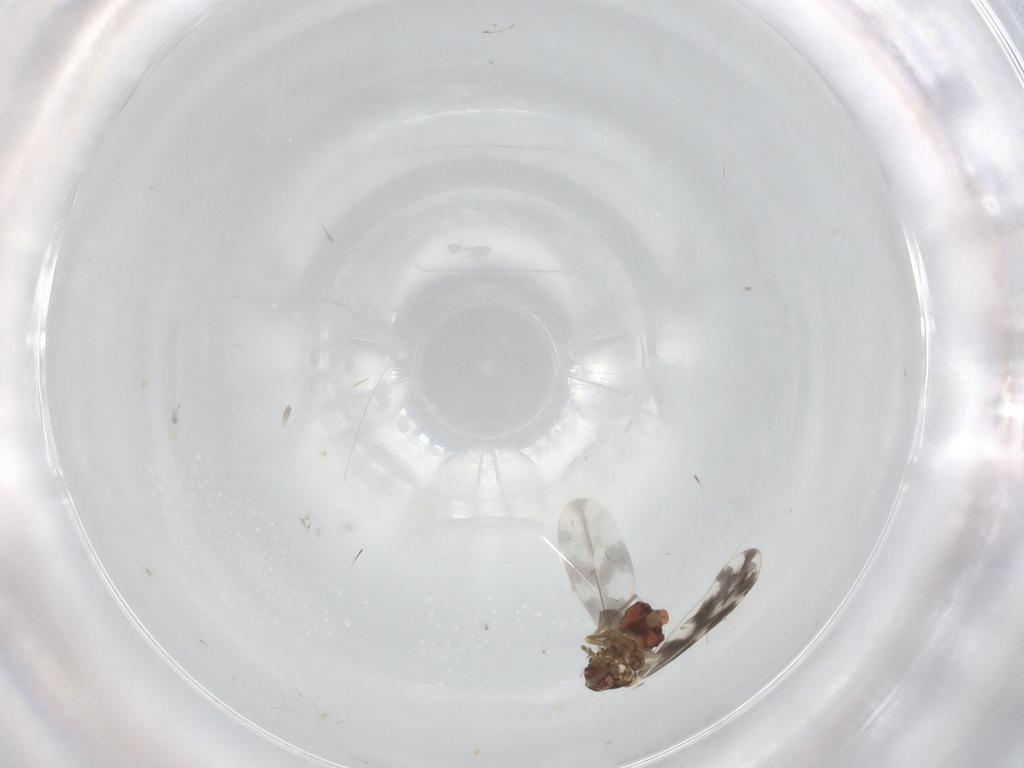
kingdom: Animalia
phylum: Arthropoda
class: Insecta
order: Hemiptera
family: Aleyrodidae
